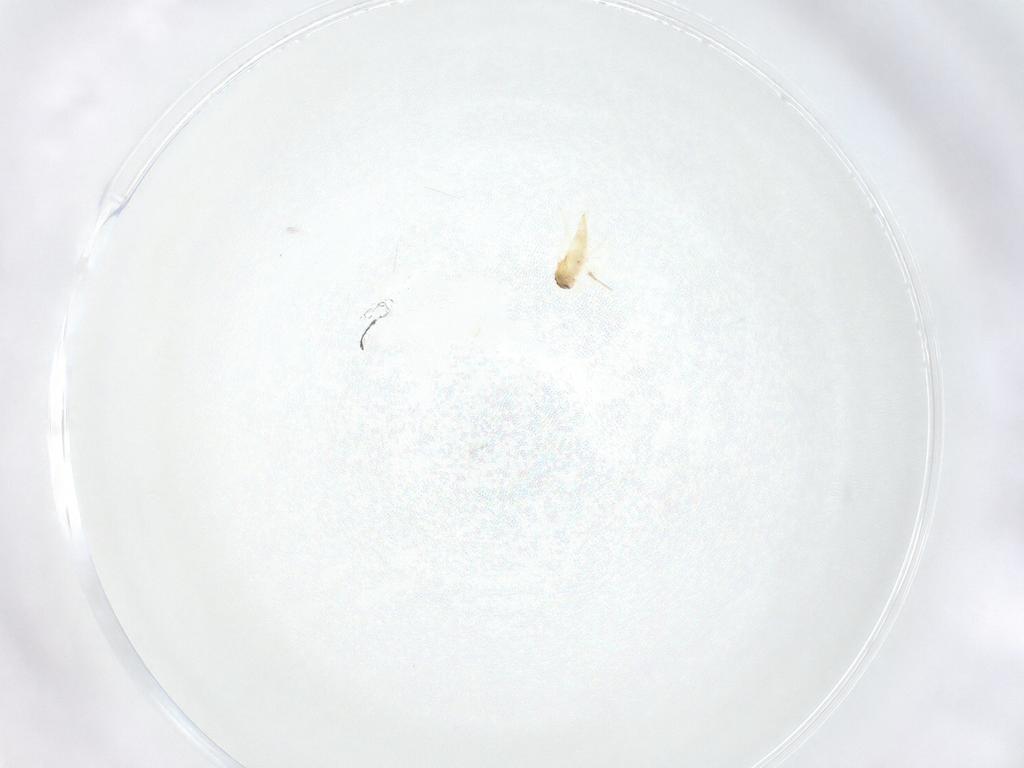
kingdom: Animalia
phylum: Arthropoda
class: Insecta
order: Hymenoptera
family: Aphelinidae
